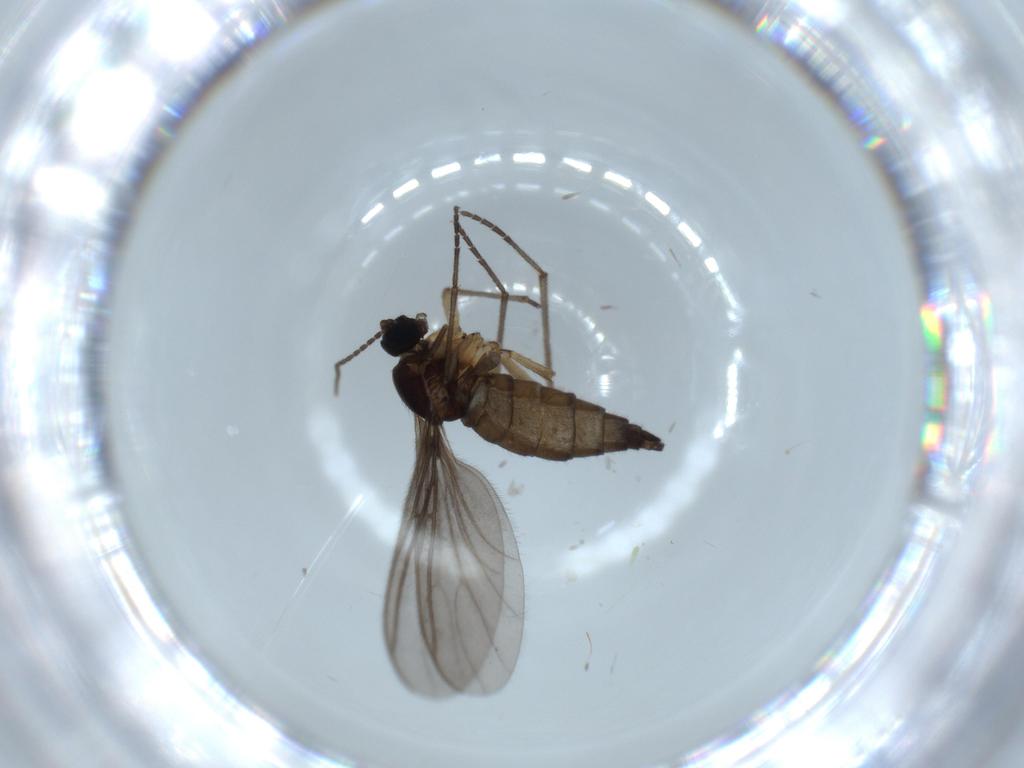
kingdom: Animalia
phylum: Arthropoda
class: Insecta
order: Diptera
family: Sciaridae
